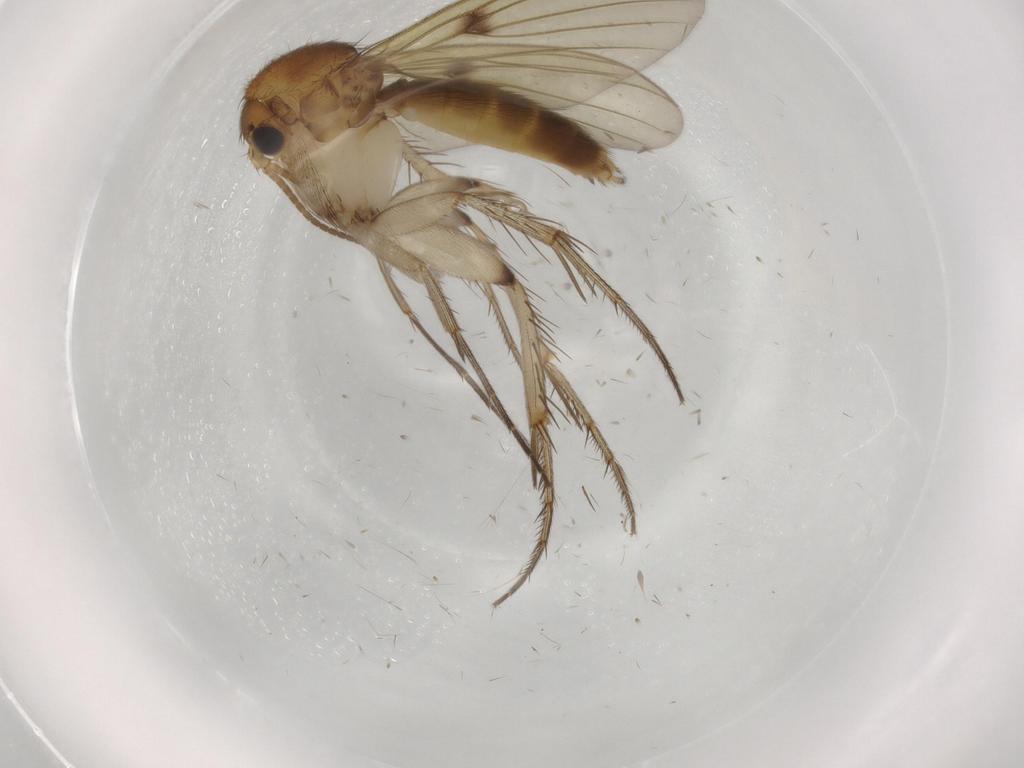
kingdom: Animalia
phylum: Arthropoda
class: Insecta
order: Diptera
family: Mycetophilidae
